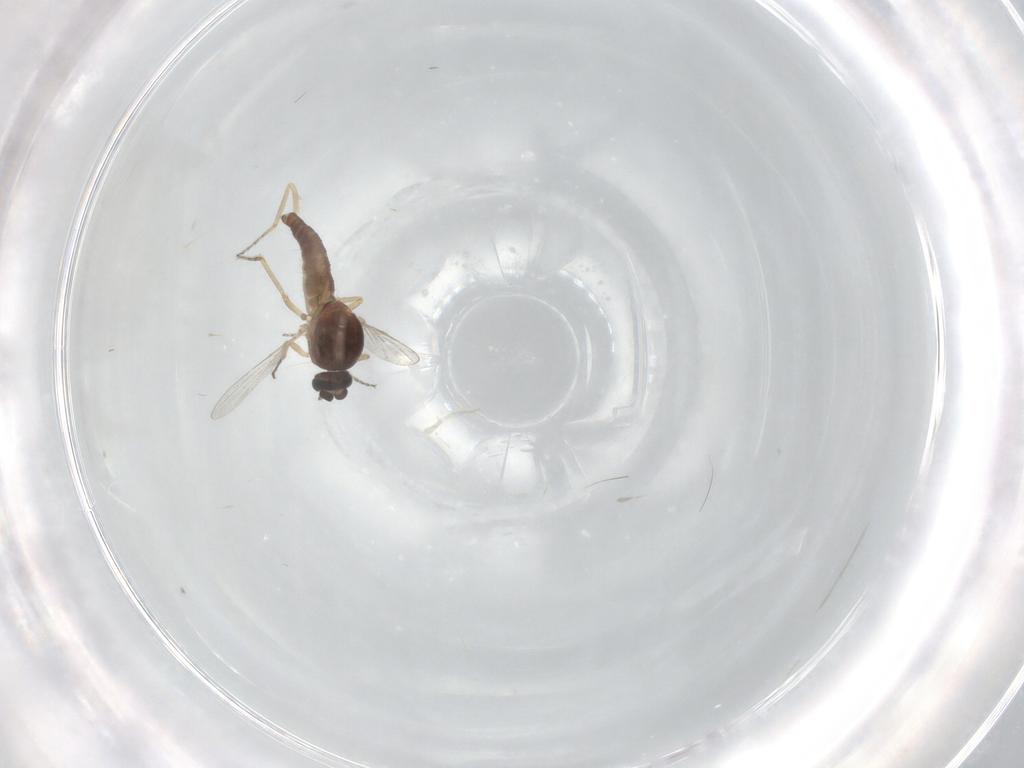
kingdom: Animalia
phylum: Arthropoda
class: Insecta
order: Diptera
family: Ceratopogonidae
